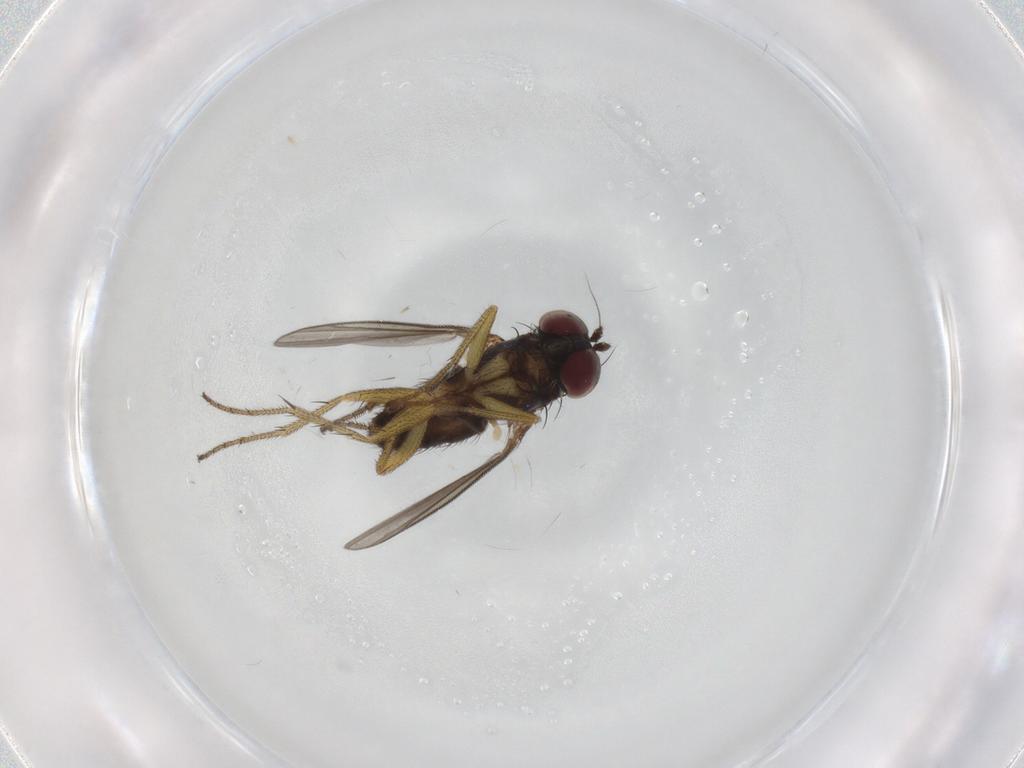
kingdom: Animalia
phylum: Arthropoda
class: Insecta
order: Diptera
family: Dolichopodidae
